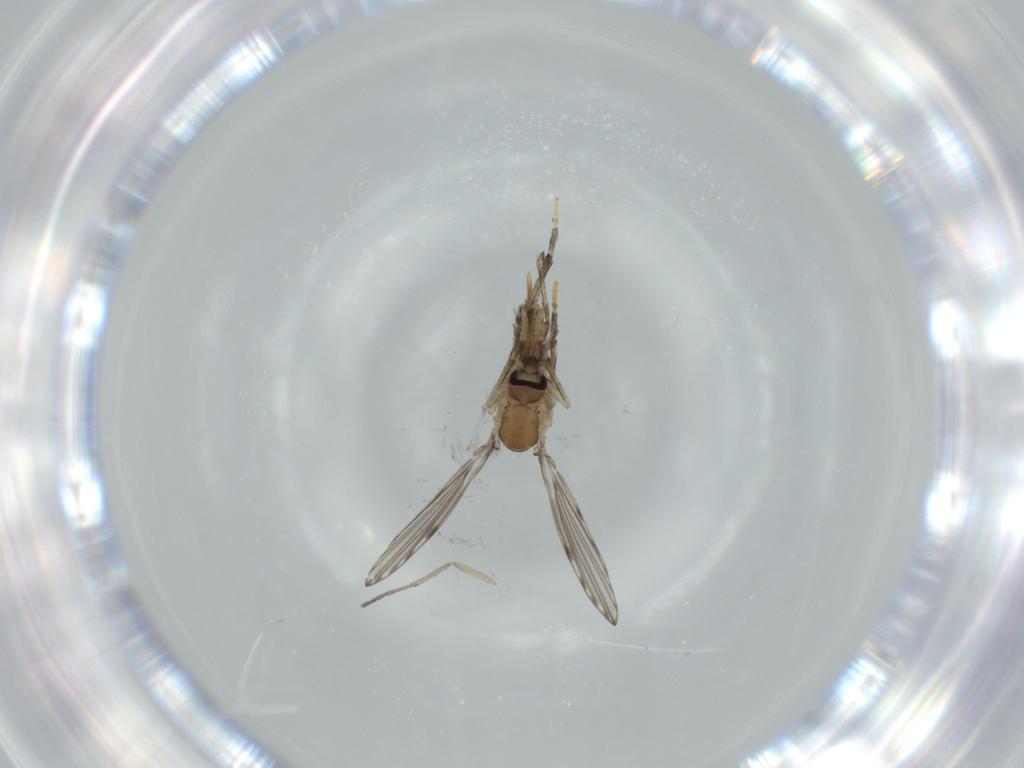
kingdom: Animalia
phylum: Arthropoda
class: Insecta
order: Diptera
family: Psychodidae
